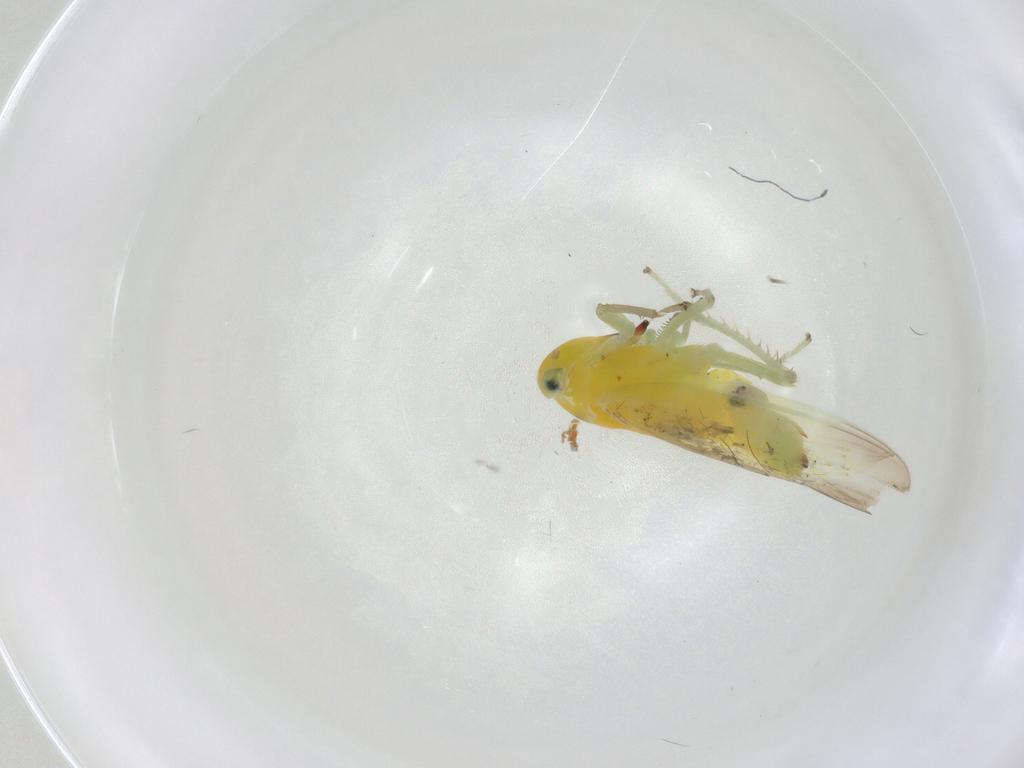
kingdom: Animalia
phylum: Arthropoda
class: Insecta
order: Hemiptera
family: Cicadellidae
